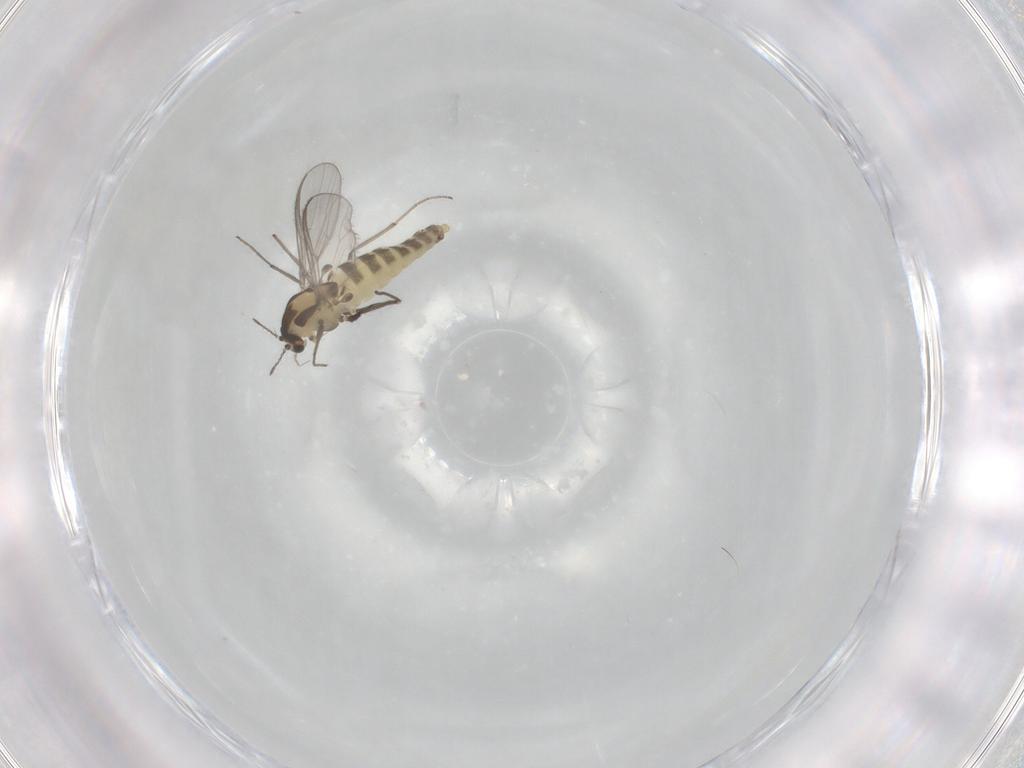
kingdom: Animalia
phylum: Arthropoda
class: Insecta
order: Diptera
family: Chironomidae
